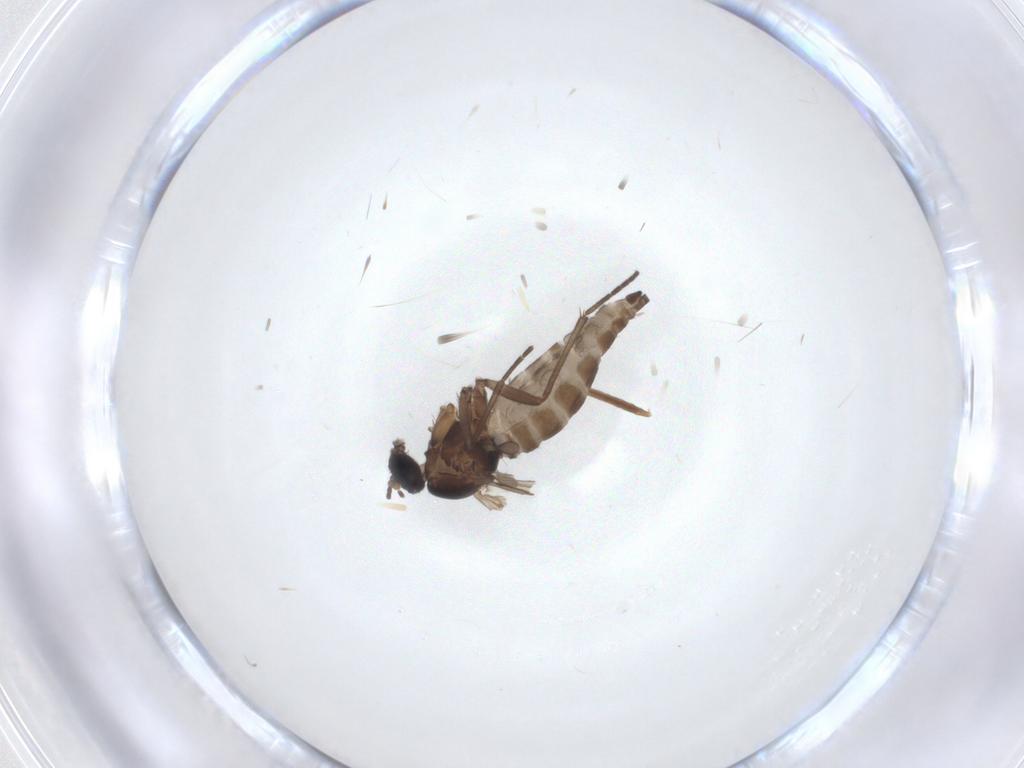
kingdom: Animalia
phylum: Arthropoda
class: Insecta
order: Diptera
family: Sciaridae
